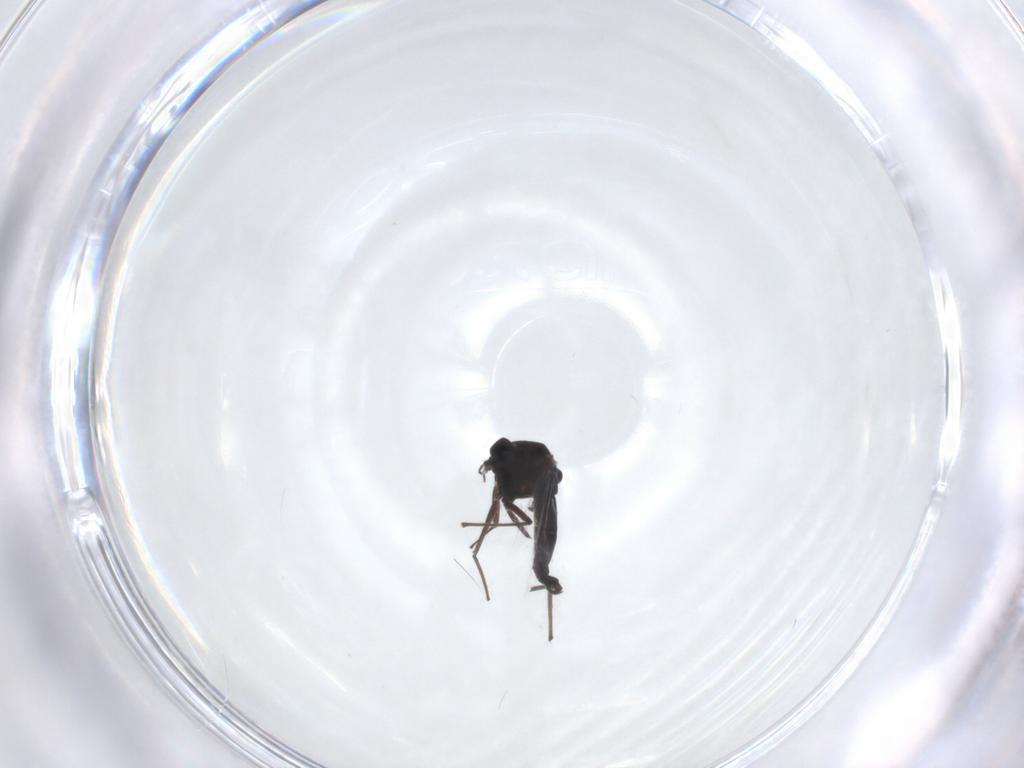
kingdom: Animalia
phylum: Arthropoda
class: Insecta
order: Diptera
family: Chironomidae
